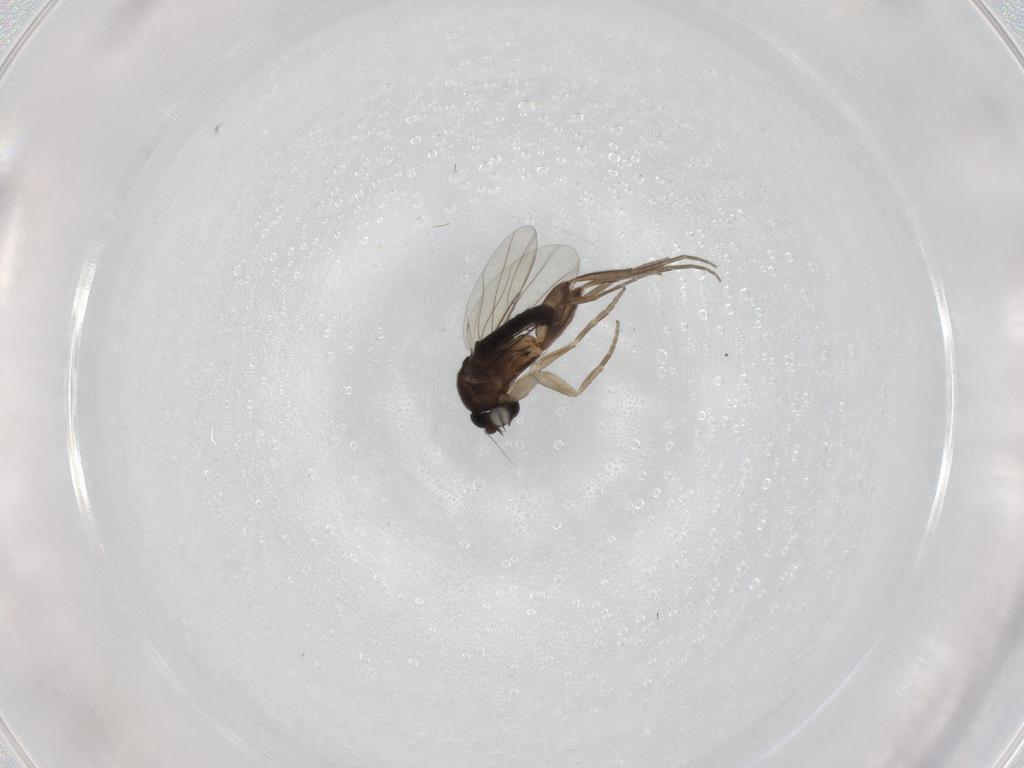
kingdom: Animalia
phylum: Arthropoda
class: Insecta
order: Diptera
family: Phoridae
